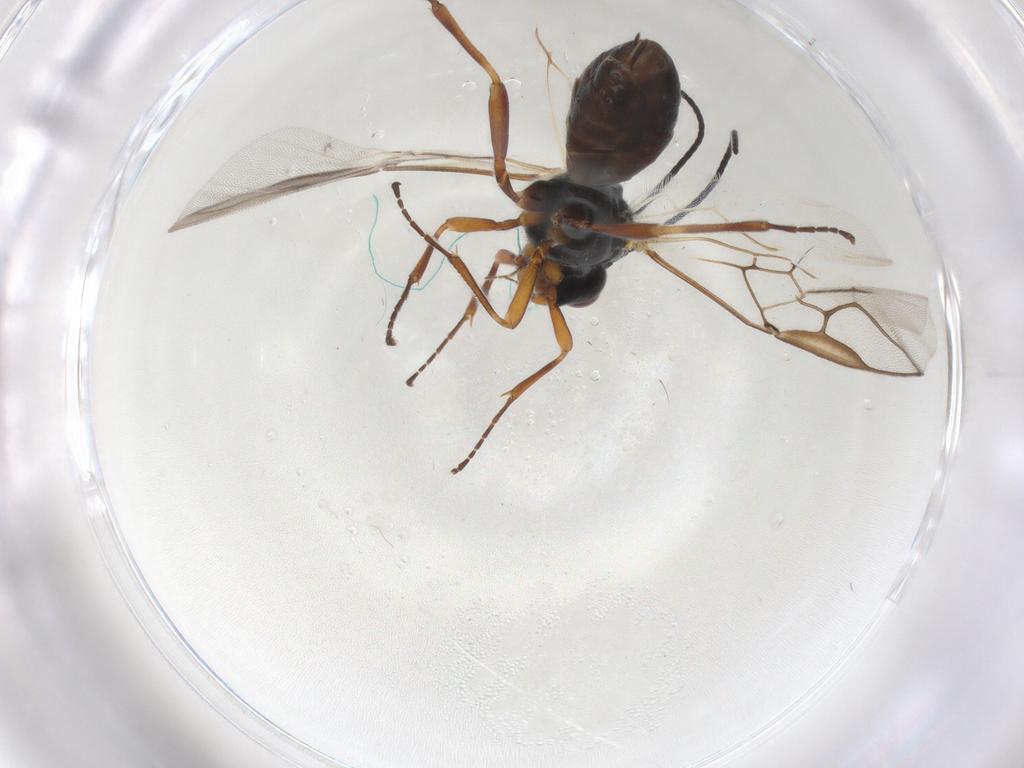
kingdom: Animalia
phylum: Arthropoda
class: Insecta
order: Hymenoptera
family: Braconidae
